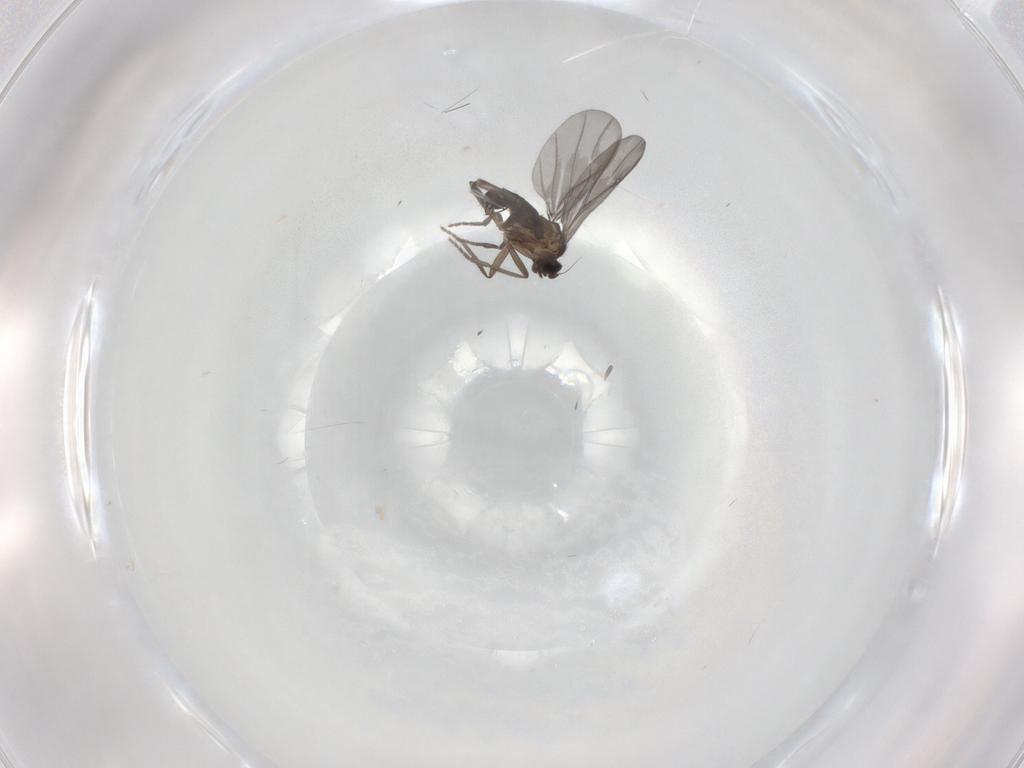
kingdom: Animalia
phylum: Arthropoda
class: Insecta
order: Diptera
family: Phoridae
